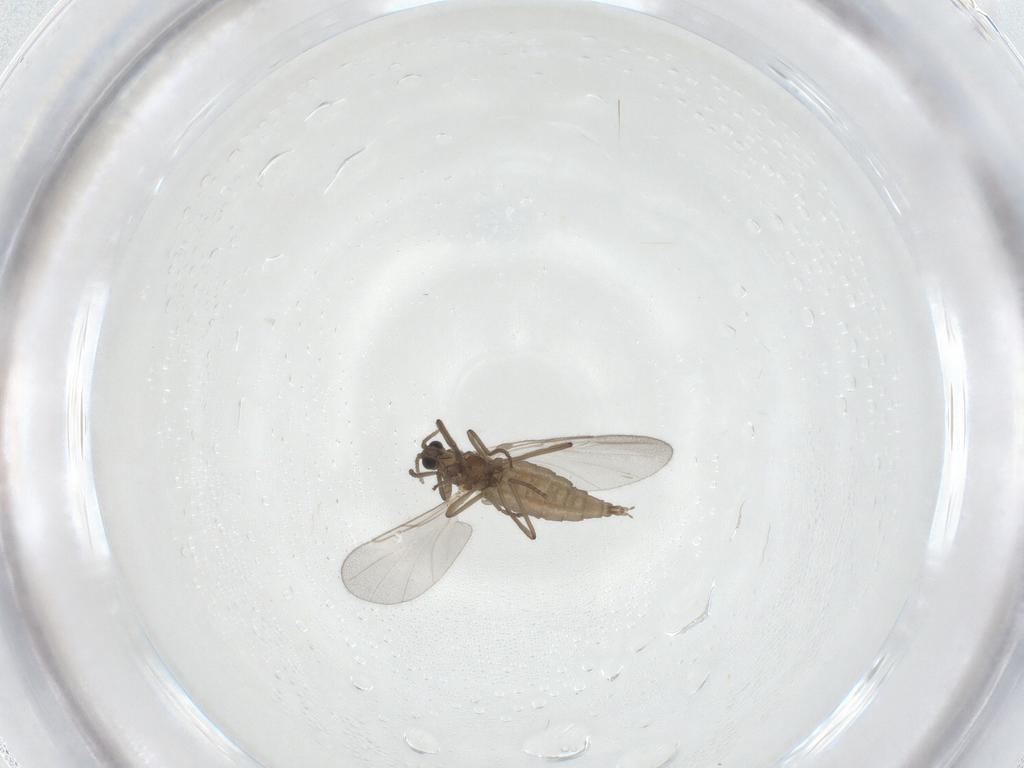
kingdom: Animalia
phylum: Arthropoda
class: Insecta
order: Diptera
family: Cecidomyiidae
